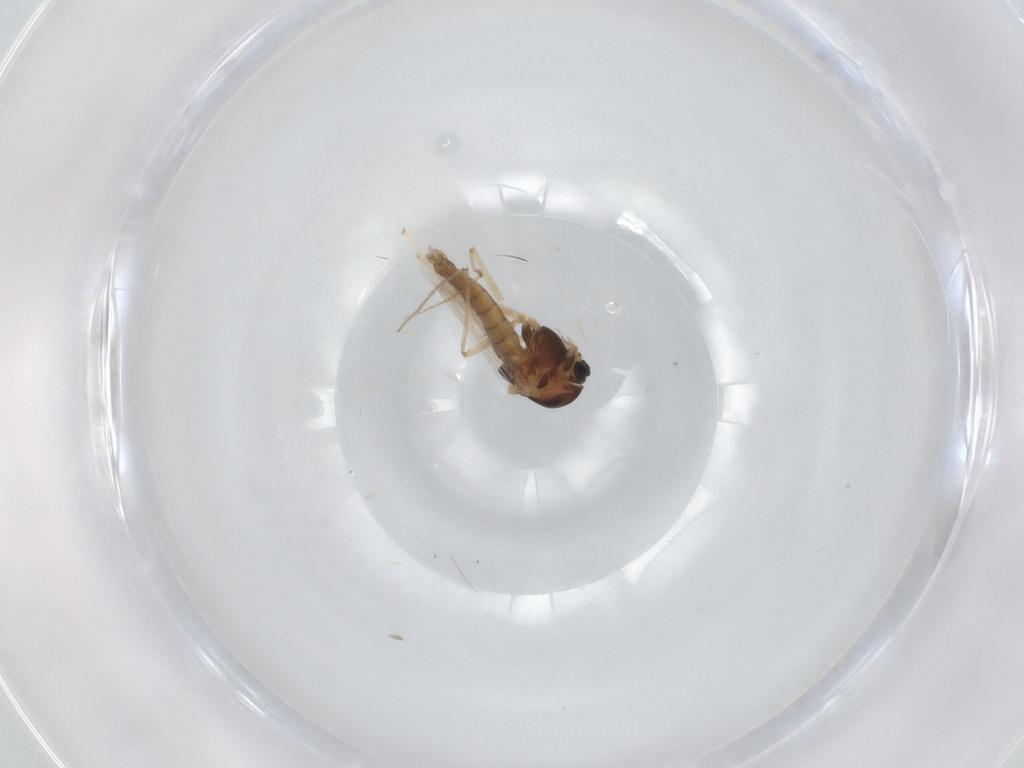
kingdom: Animalia
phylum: Arthropoda
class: Insecta
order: Diptera
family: Chironomidae
